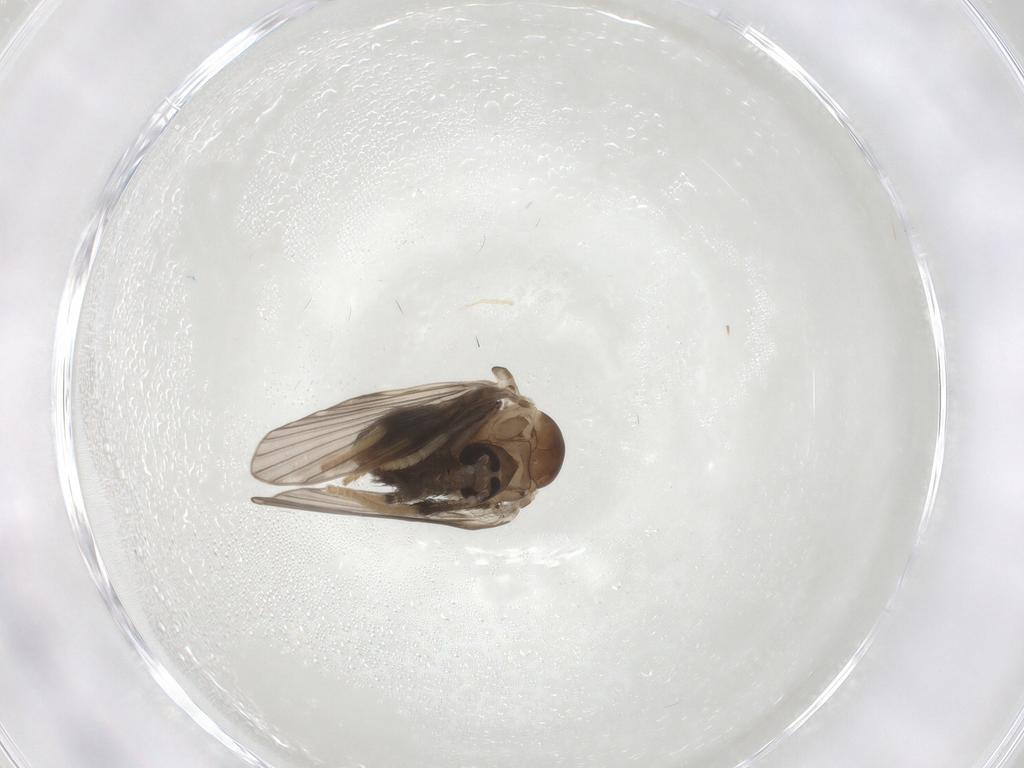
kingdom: Animalia
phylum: Arthropoda
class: Insecta
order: Diptera
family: Psychodidae
